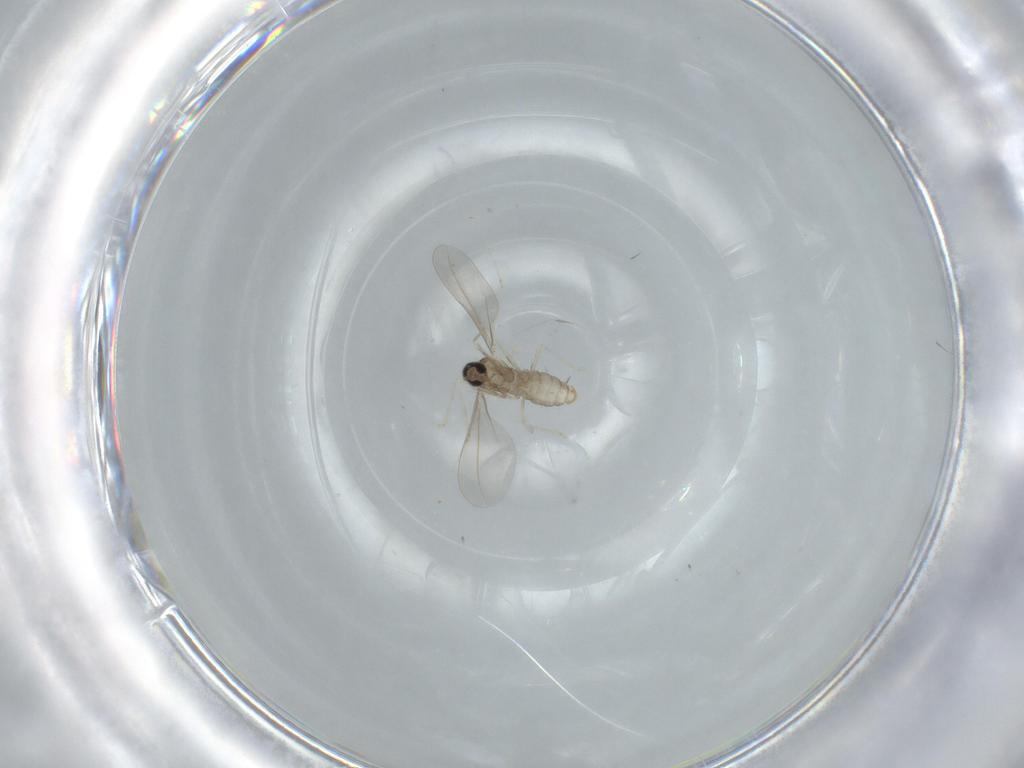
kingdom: Animalia
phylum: Arthropoda
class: Insecta
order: Diptera
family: Cecidomyiidae
